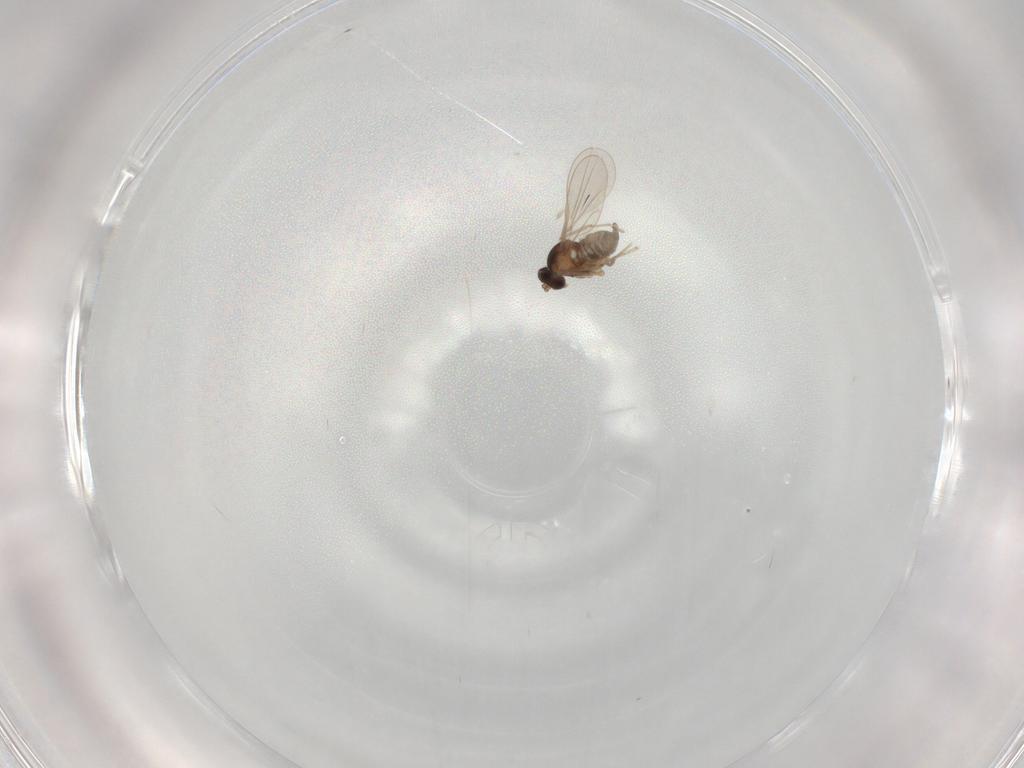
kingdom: Animalia
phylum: Arthropoda
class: Insecta
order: Diptera
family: Cecidomyiidae
